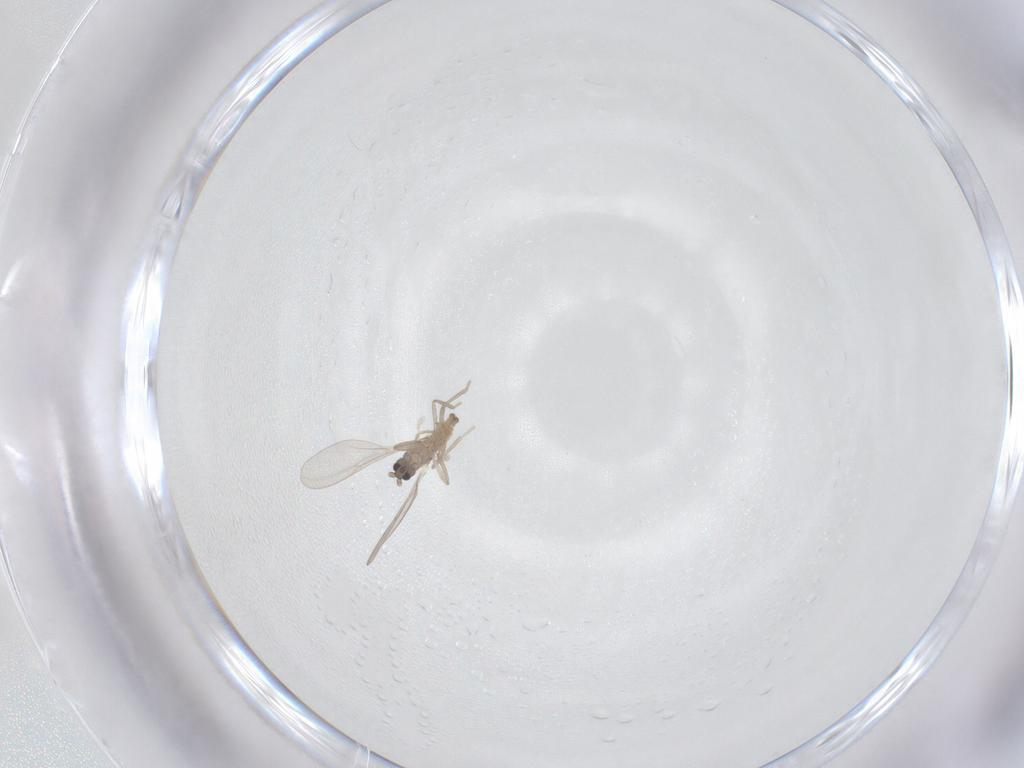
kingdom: Animalia
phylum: Arthropoda
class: Insecta
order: Diptera
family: Cecidomyiidae
